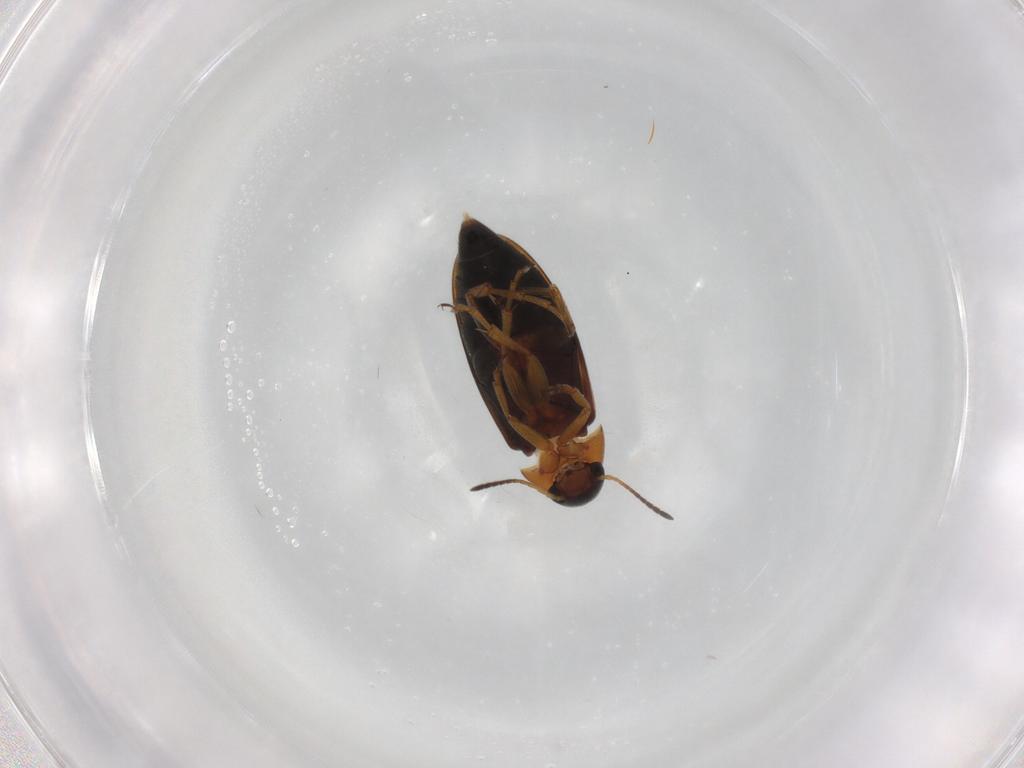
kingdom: Animalia
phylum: Arthropoda
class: Insecta
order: Coleoptera
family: Scraptiidae
